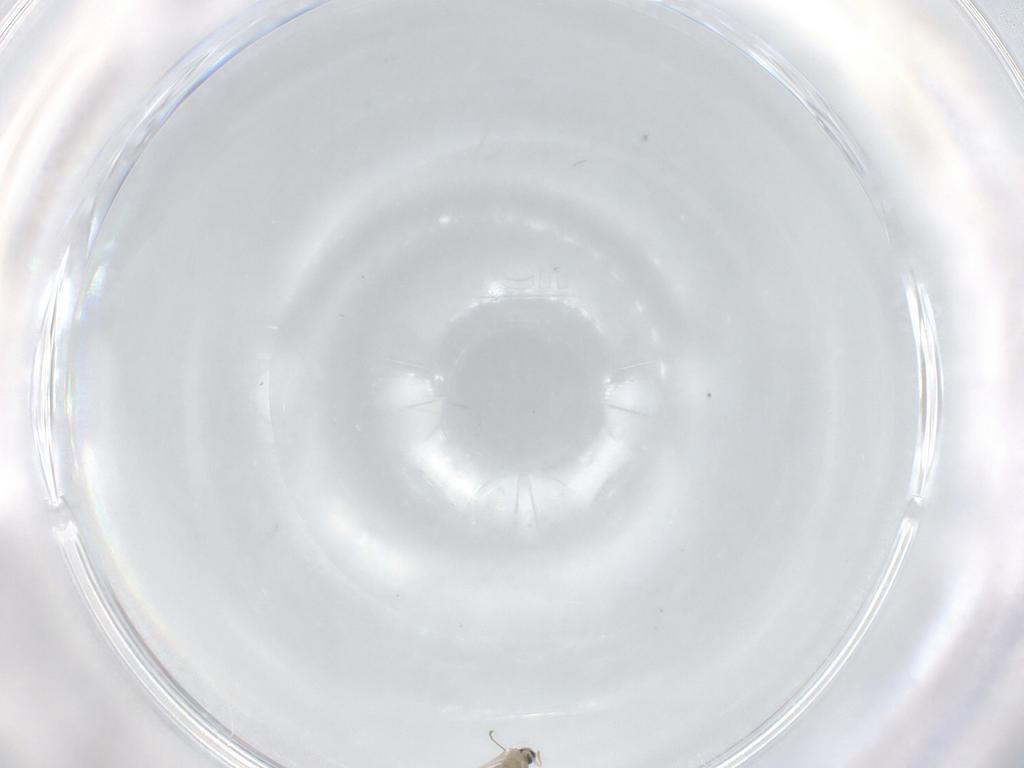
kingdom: Animalia
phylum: Arthropoda
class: Insecta
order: Diptera
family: Cecidomyiidae
